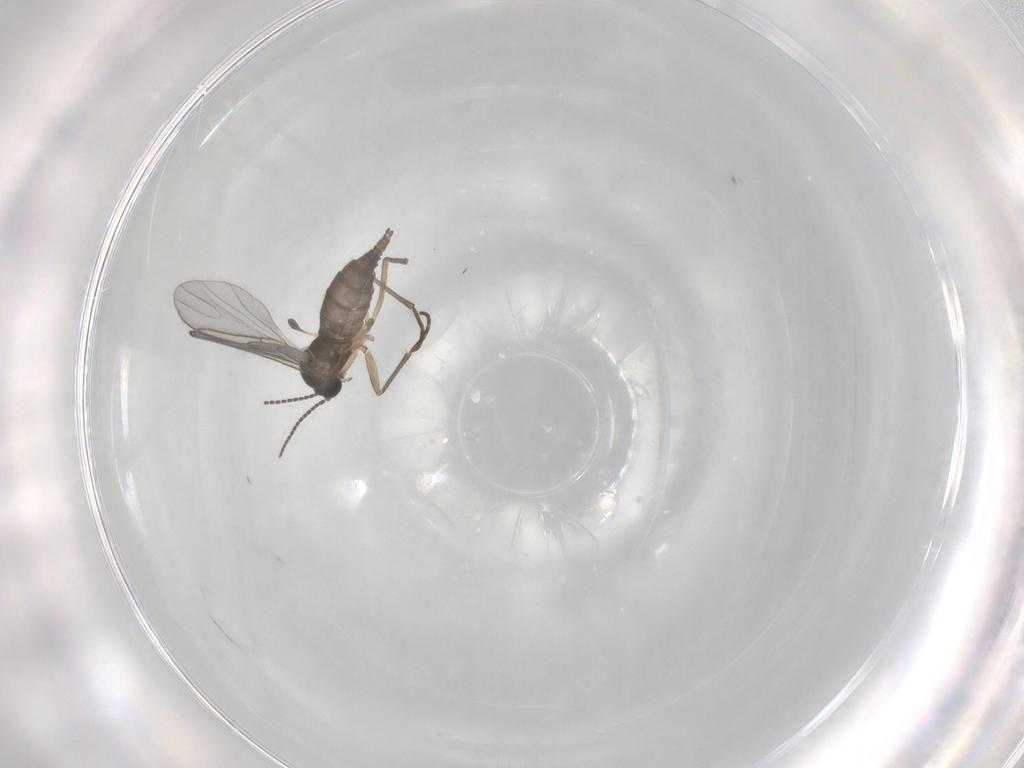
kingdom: Animalia
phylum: Arthropoda
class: Insecta
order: Diptera
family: Sciaridae
